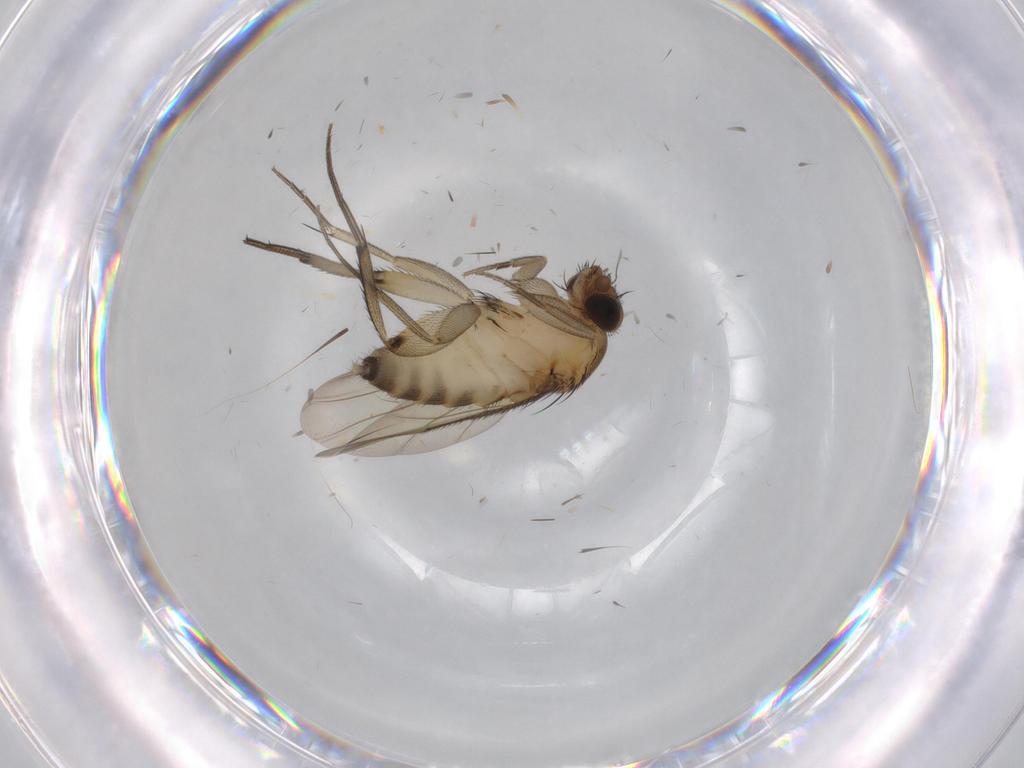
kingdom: Animalia
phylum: Arthropoda
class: Insecta
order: Diptera
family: Phoridae
